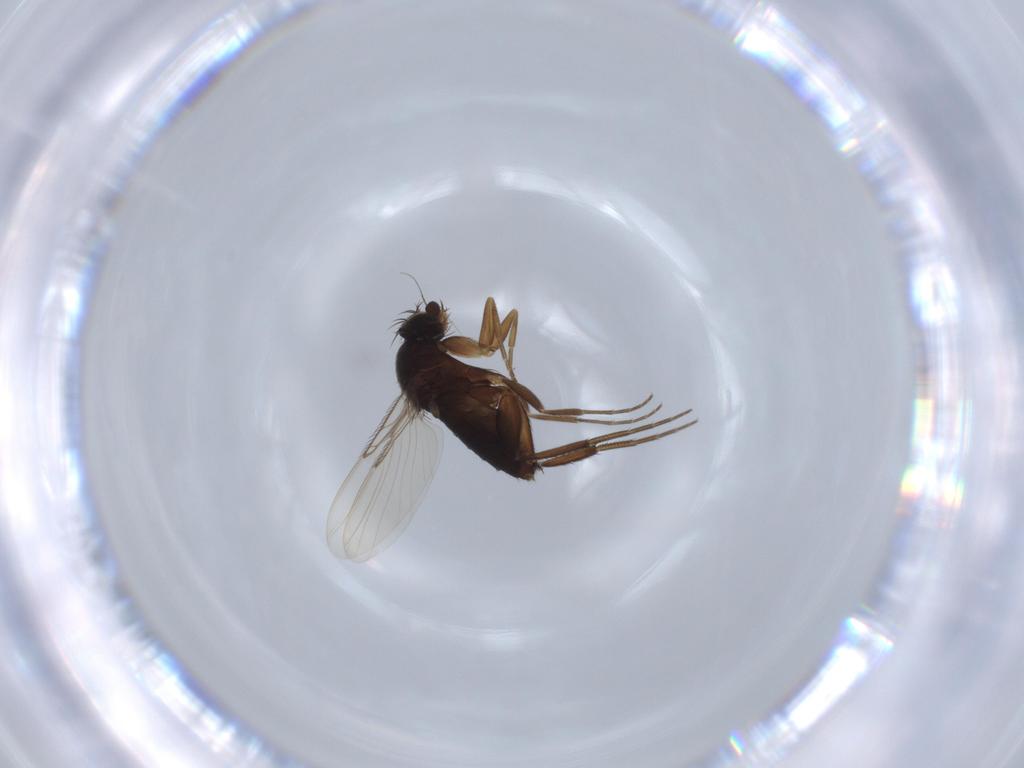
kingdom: Animalia
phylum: Arthropoda
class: Insecta
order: Diptera
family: Phoridae
